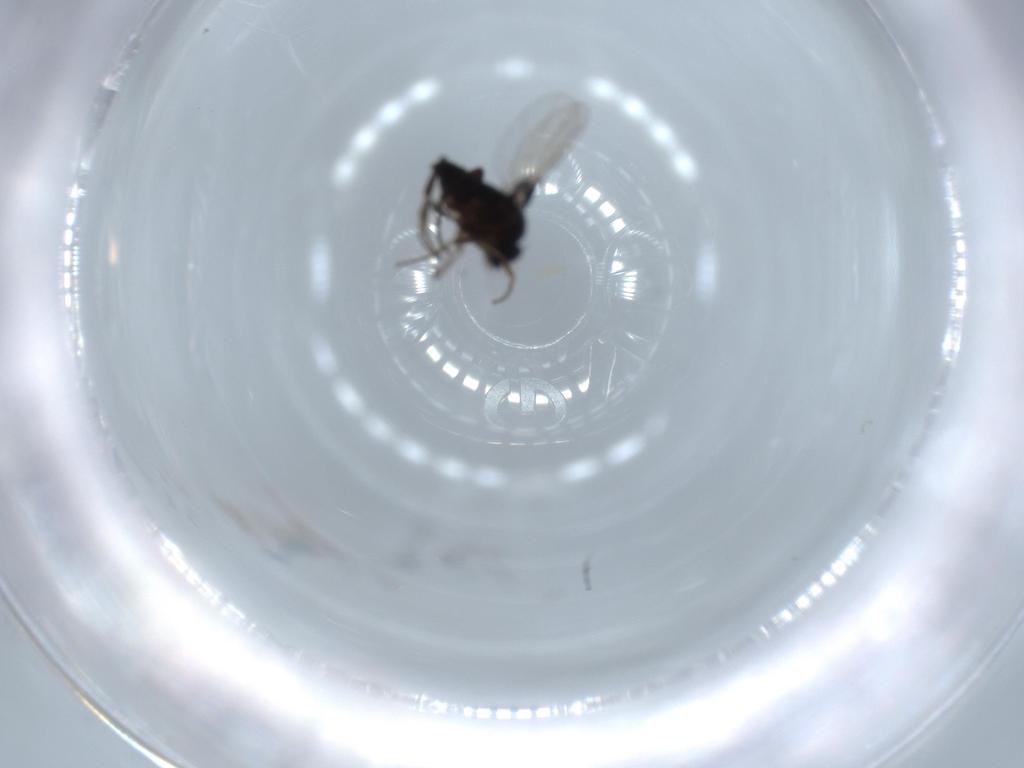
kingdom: Animalia
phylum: Arthropoda
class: Insecta
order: Diptera
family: Phoridae
